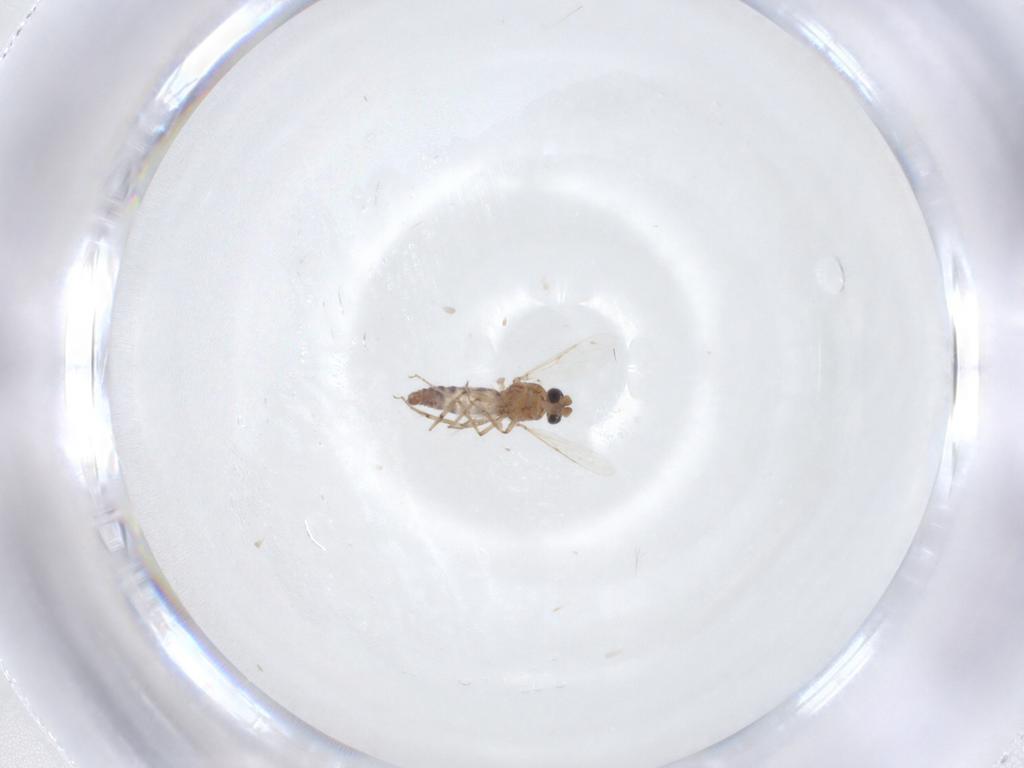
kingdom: Animalia
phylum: Arthropoda
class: Insecta
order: Diptera
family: Ceratopogonidae
